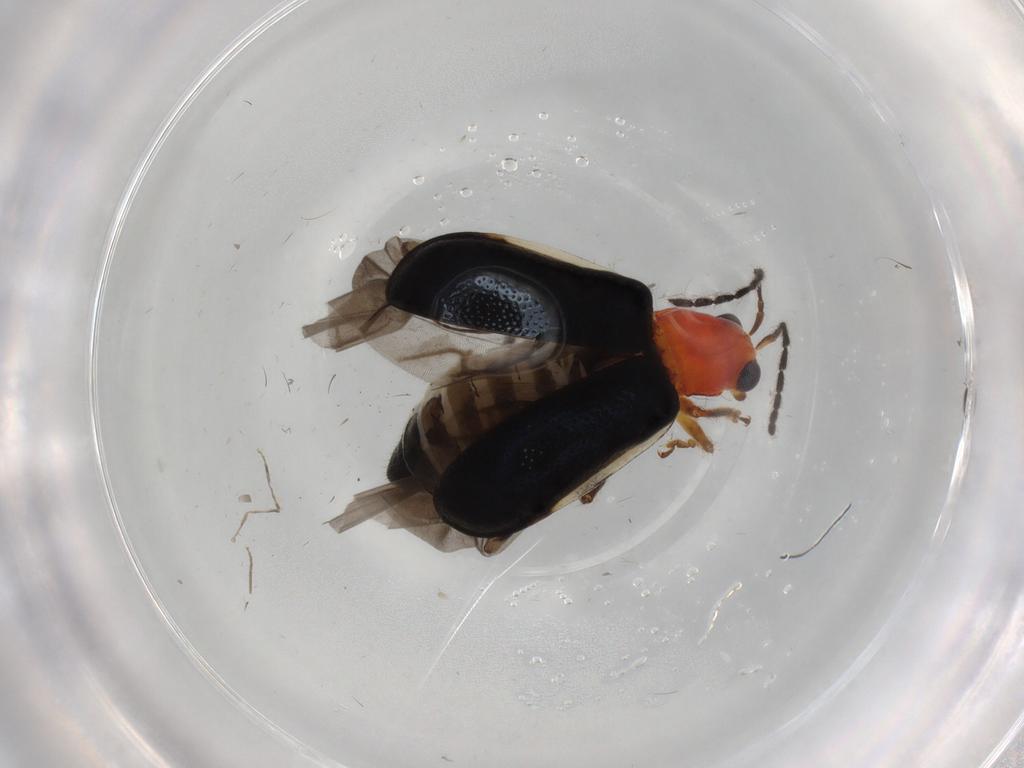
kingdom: Animalia
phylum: Arthropoda
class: Insecta
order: Coleoptera
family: Chrysomelidae
